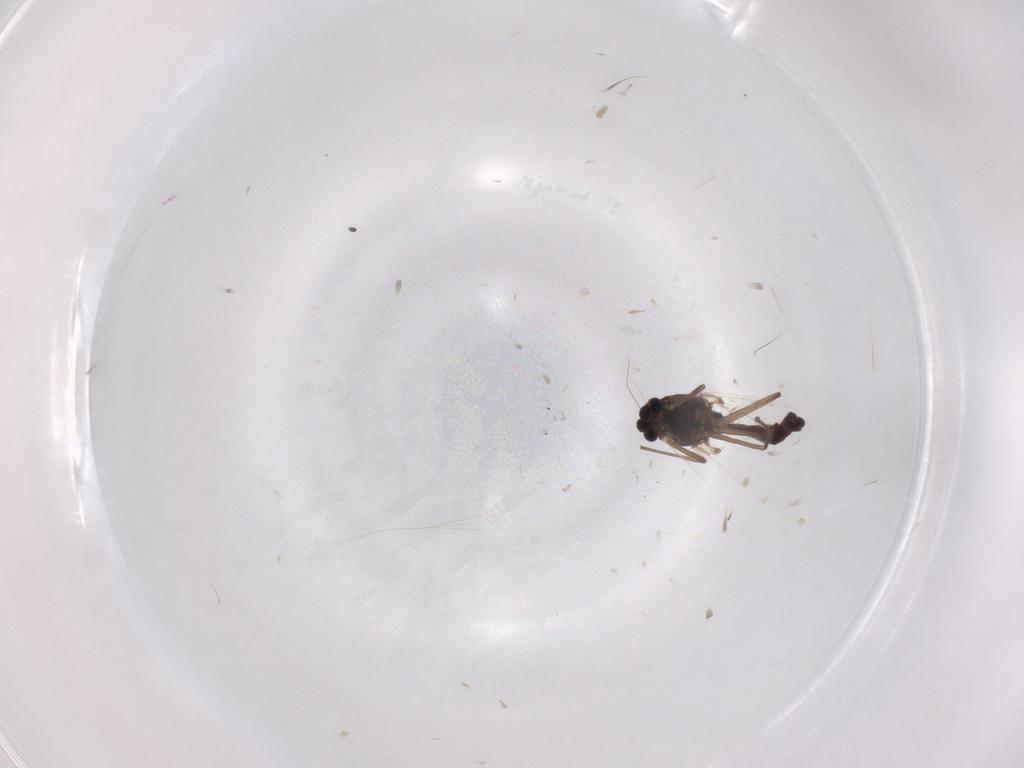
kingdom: Animalia
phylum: Arthropoda
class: Insecta
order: Diptera
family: Chironomidae
